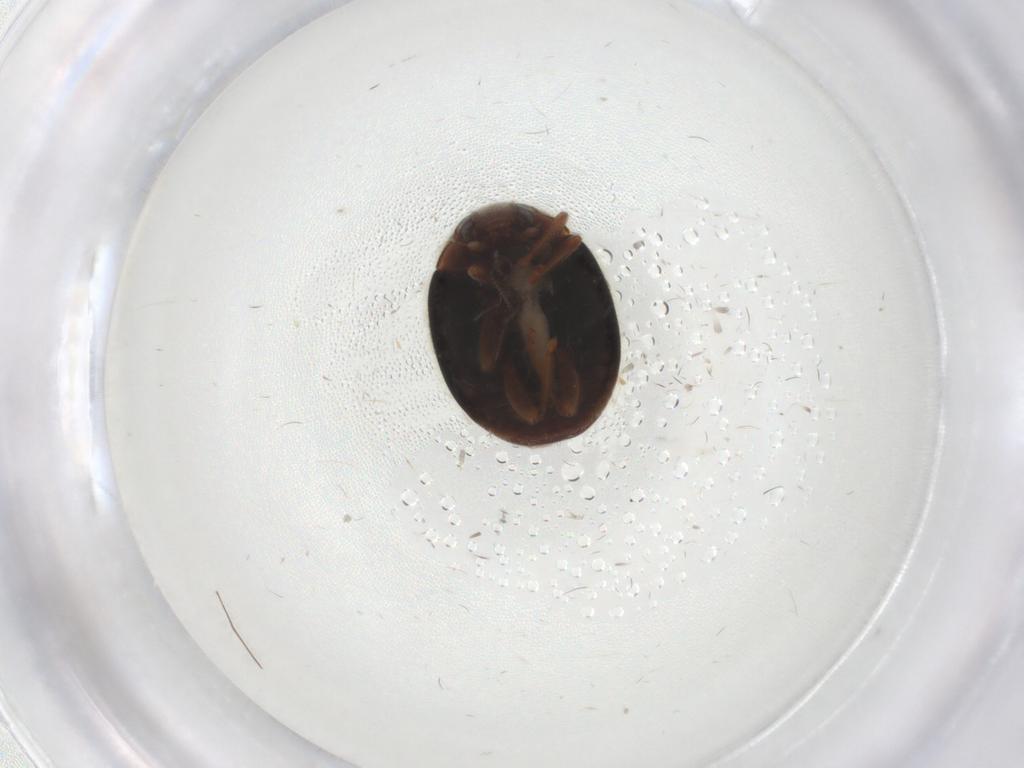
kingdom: Animalia
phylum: Arthropoda
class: Insecta
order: Coleoptera
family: Coccinellidae
